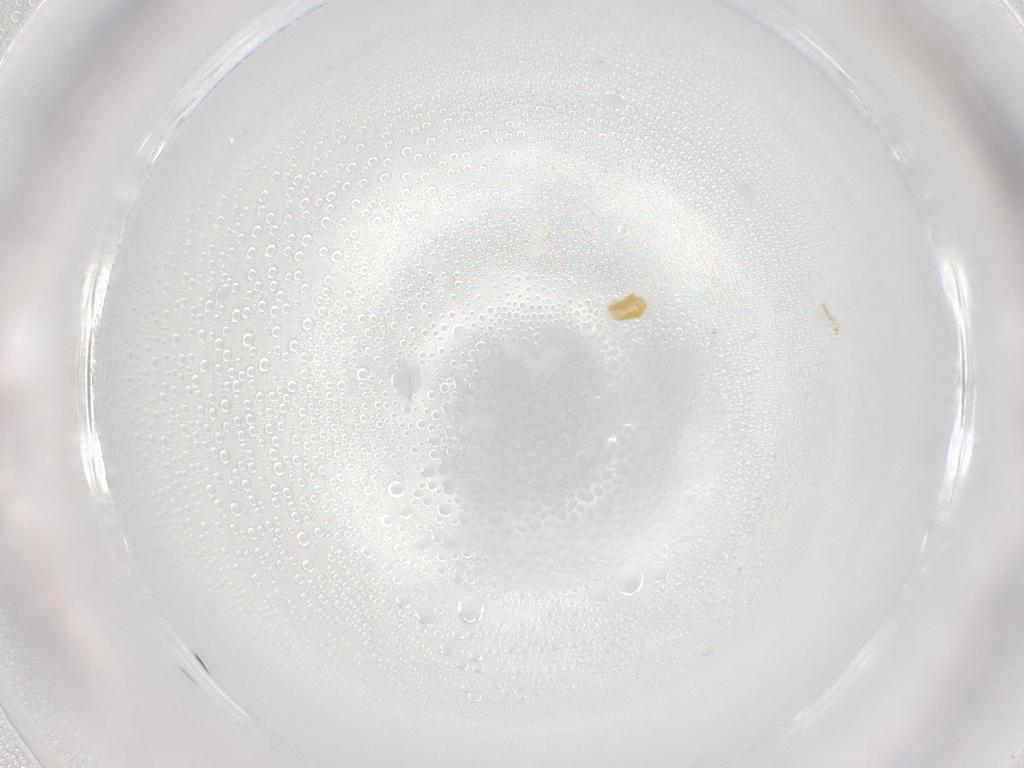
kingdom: Animalia
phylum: Arthropoda
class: Arachnida
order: Trombidiformes
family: Eupodidae
